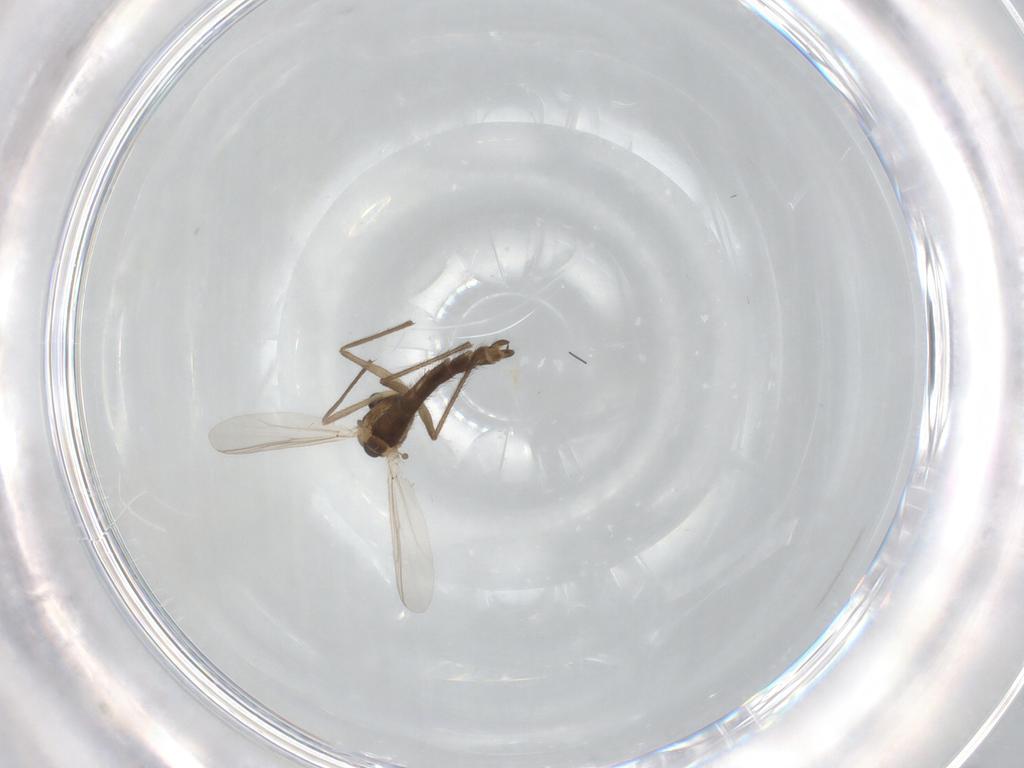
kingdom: Animalia
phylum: Arthropoda
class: Insecta
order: Diptera
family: Chironomidae
